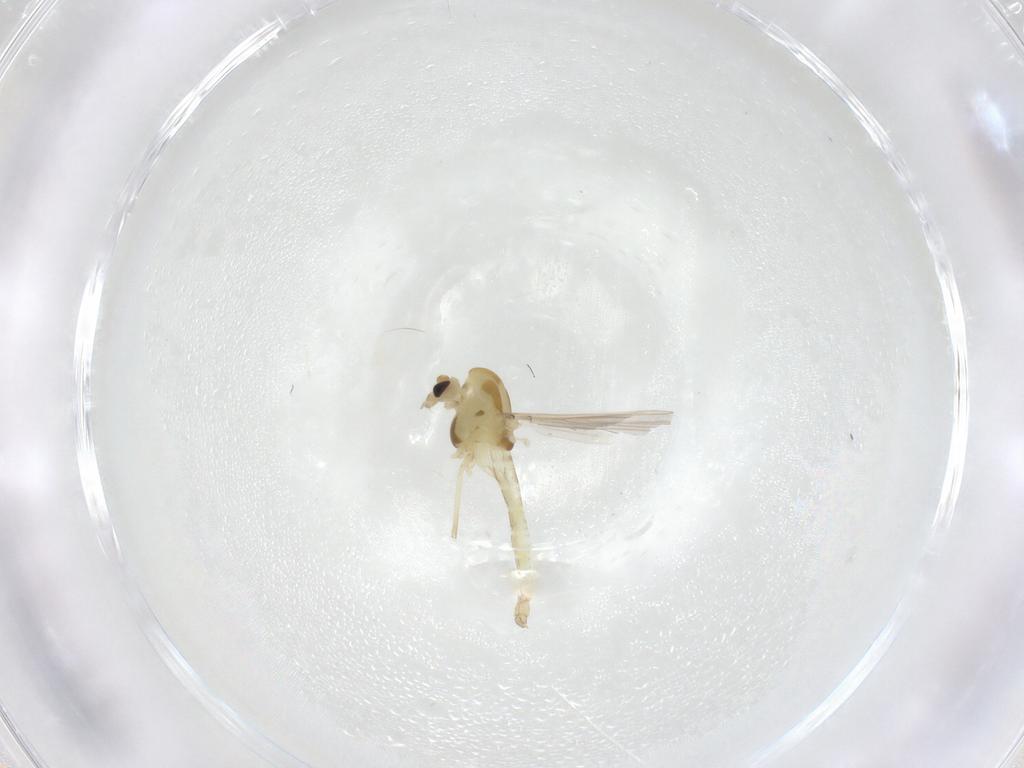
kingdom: Animalia
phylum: Arthropoda
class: Insecta
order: Diptera
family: Chironomidae
